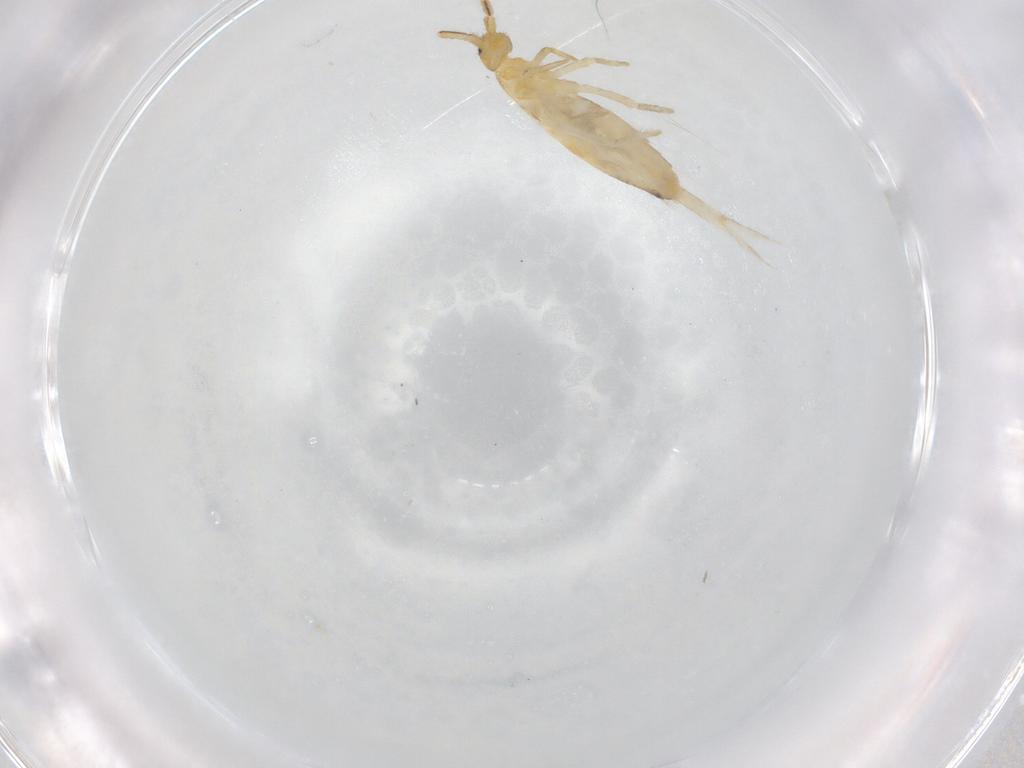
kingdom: Animalia
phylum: Arthropoda
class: Collembola
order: Entomobryomorpha
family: Entomobryidae
